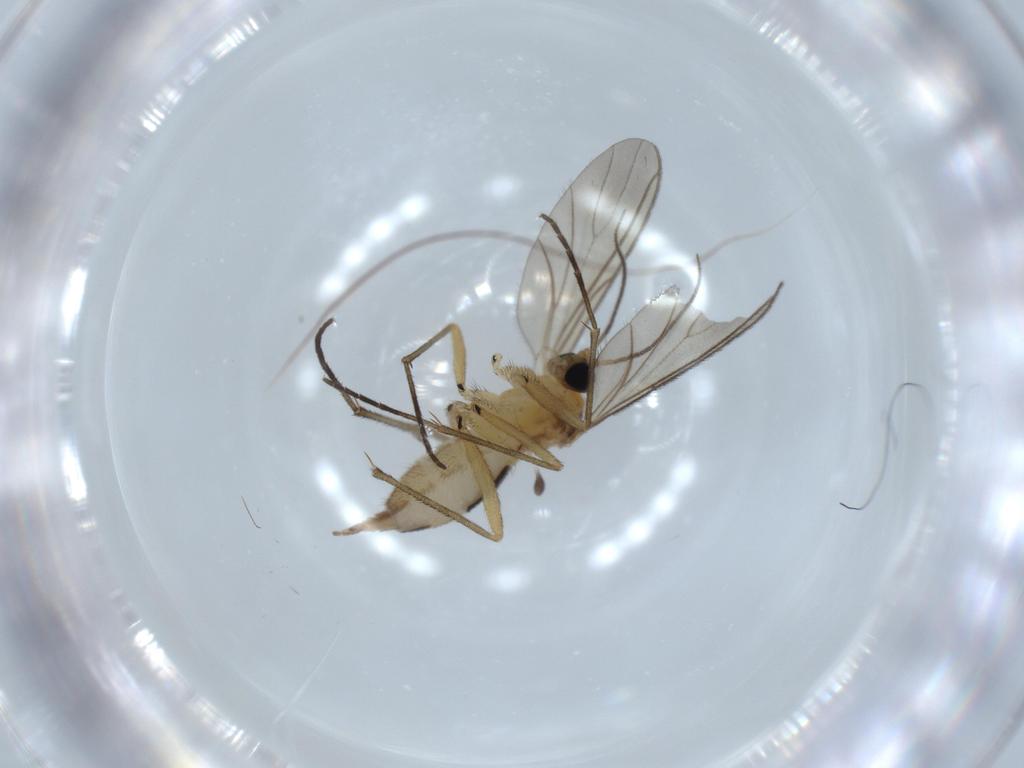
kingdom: Animalia
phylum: Arthropoda
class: Insecta
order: Diptera
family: Sciaridae
